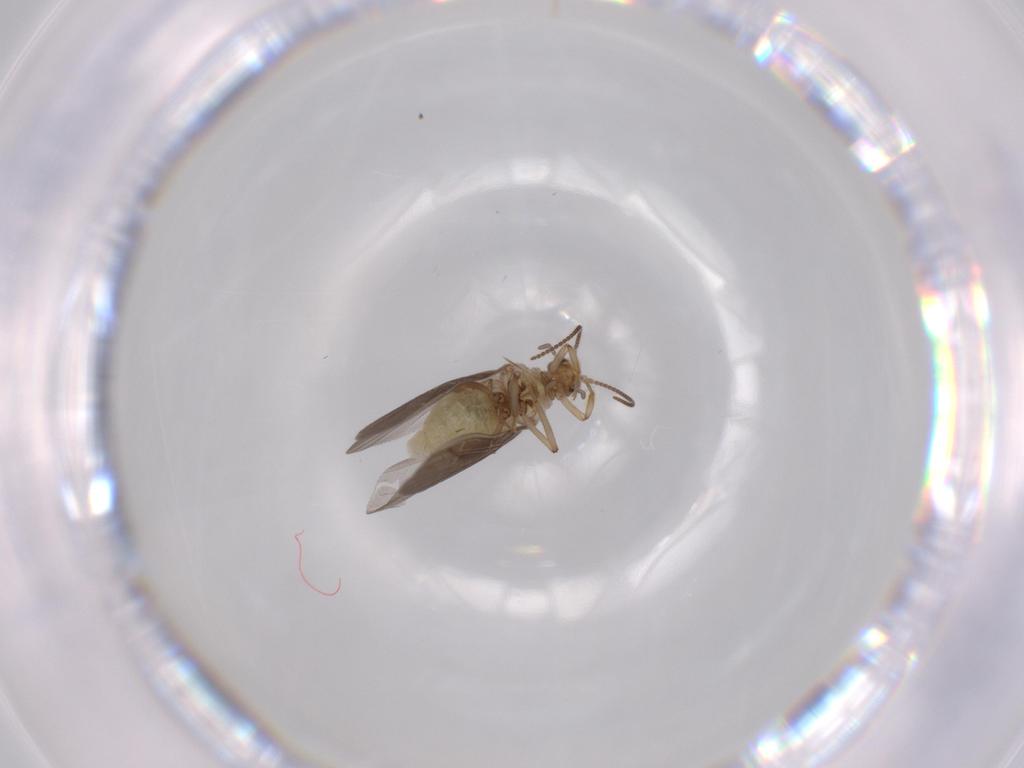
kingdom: Animalia
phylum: Arthropoda
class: Insecta
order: Neuroptera
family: Coniopterygidae
